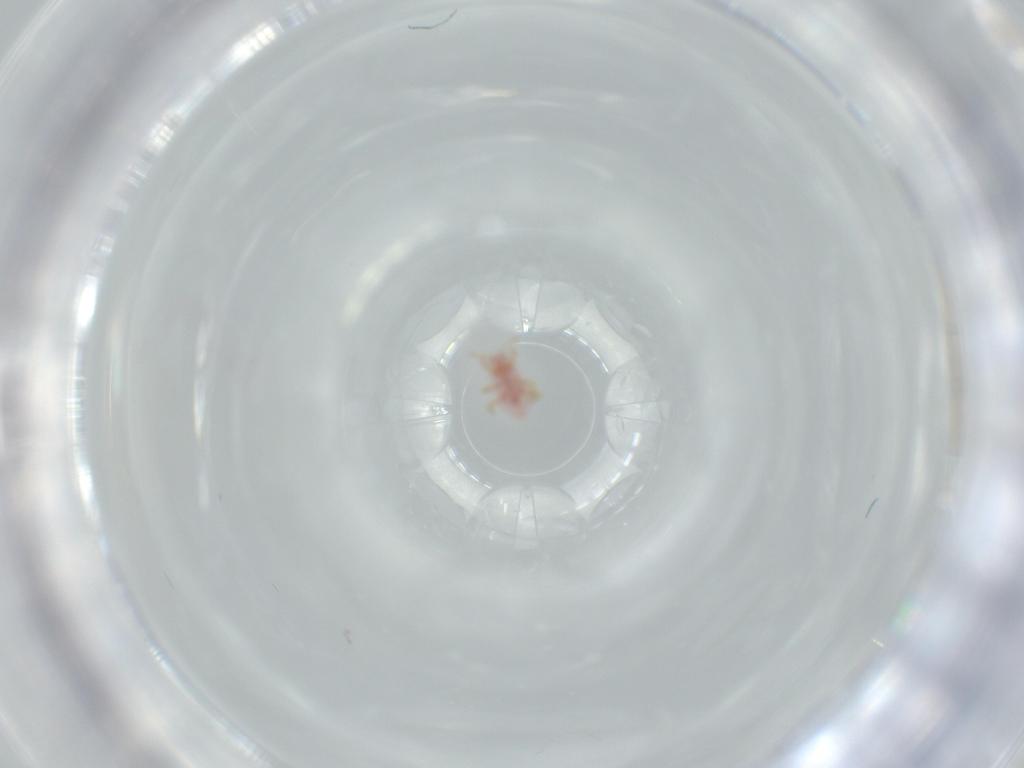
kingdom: Animalia
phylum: Arthropoda
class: Insecta
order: Hemiptera
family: Pseudococcidae
